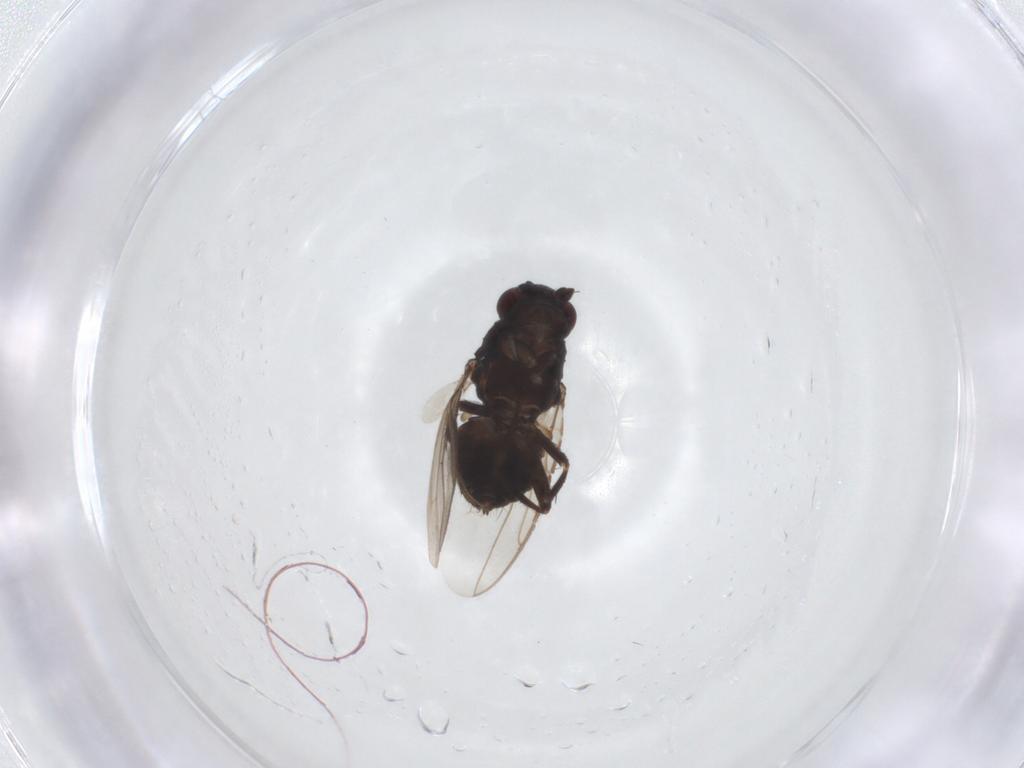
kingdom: Animalia
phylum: Arthropoda
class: Insecta
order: Diptera
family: Sphaeroceridae
